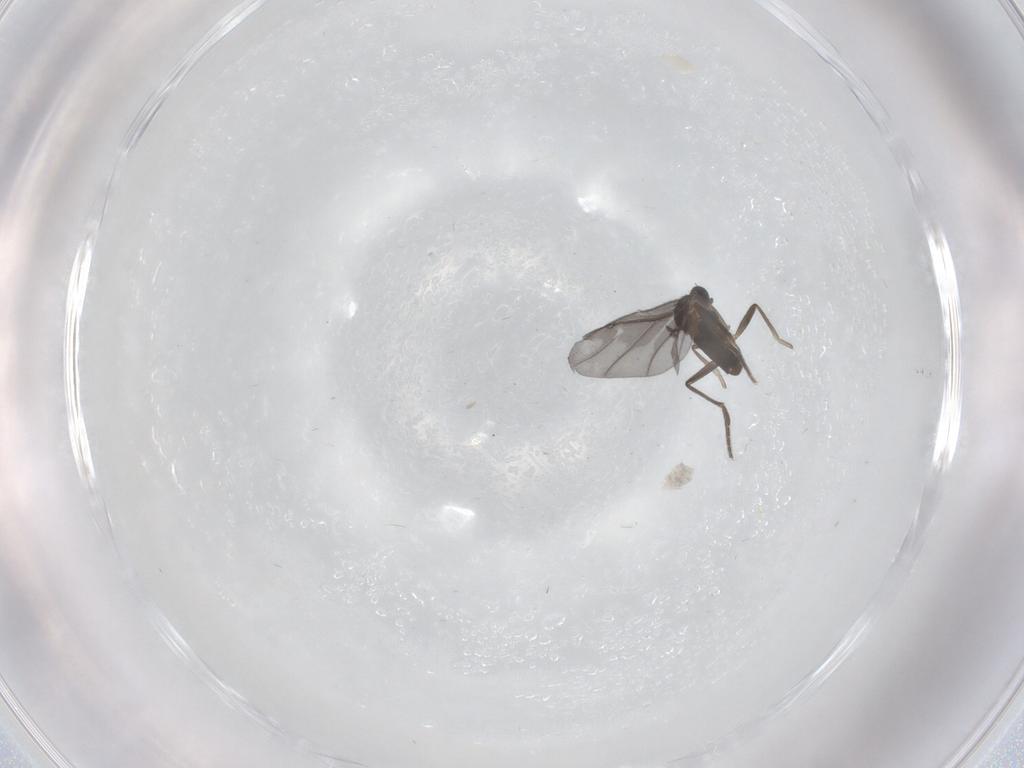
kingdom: Animalia
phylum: Arthropoda
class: Insecta
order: Diptera
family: Phoridae
